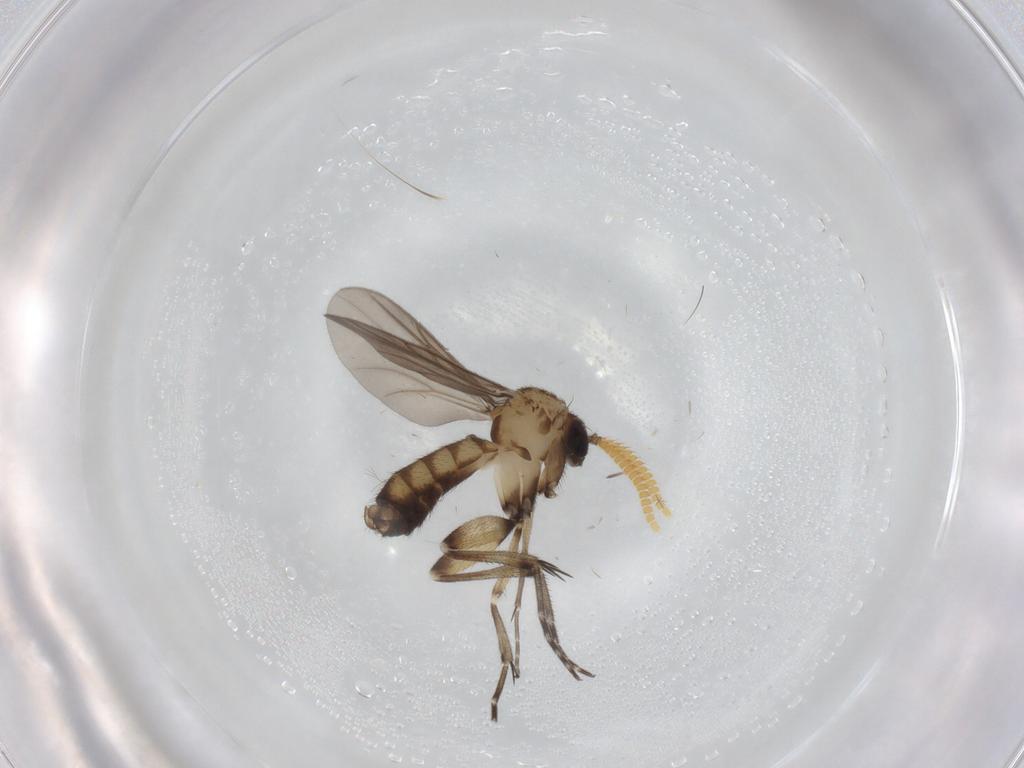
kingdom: Animalia
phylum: Arthropoda
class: Insecta
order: Diptera
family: Mycetophilidae
